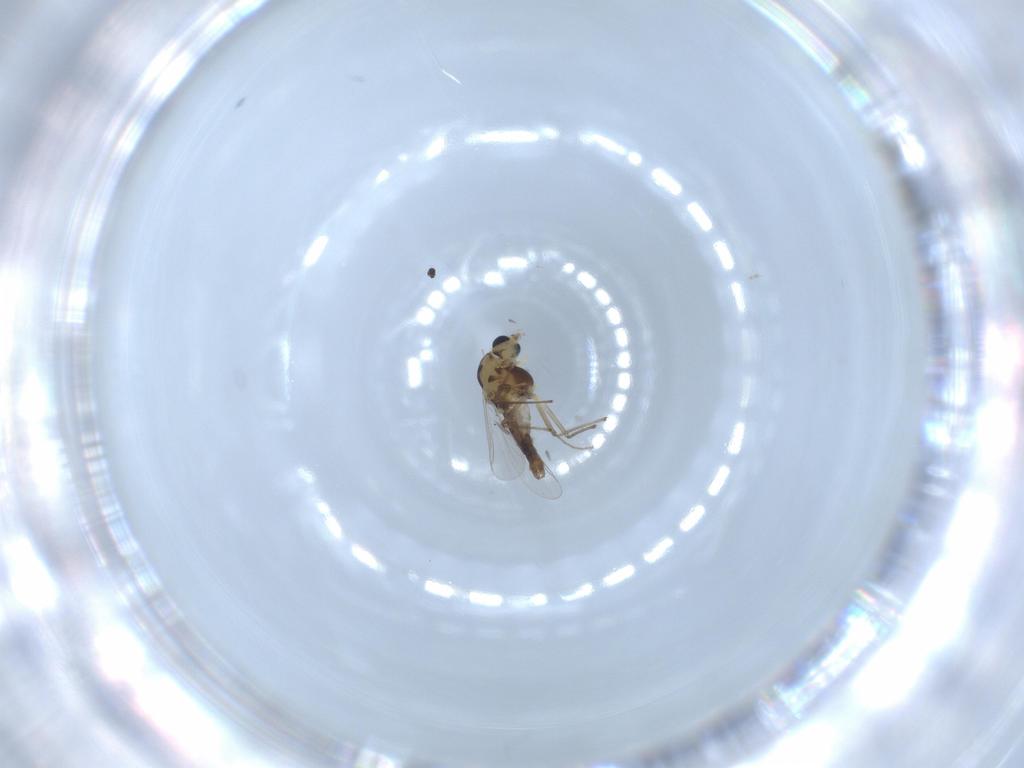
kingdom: Animalia
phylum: Arthropoda
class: Insecta
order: Diptera
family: Chironomidae
